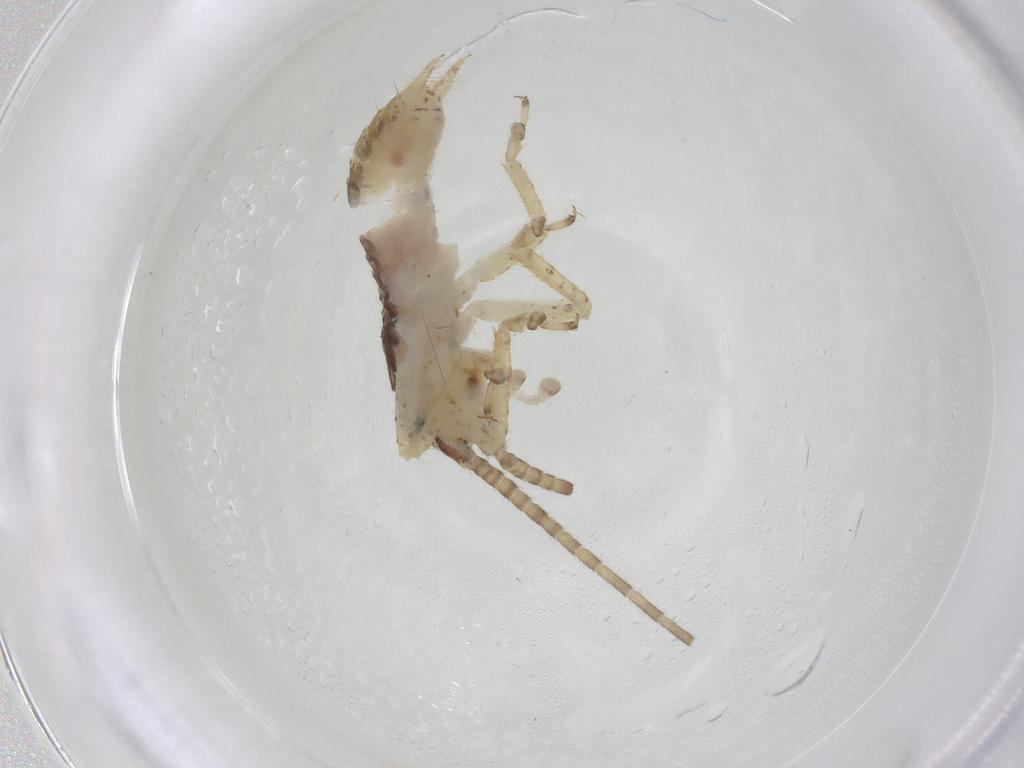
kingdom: Animalia
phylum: Arthropoda
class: Insecta
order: Orthoptera
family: Gryllidae
